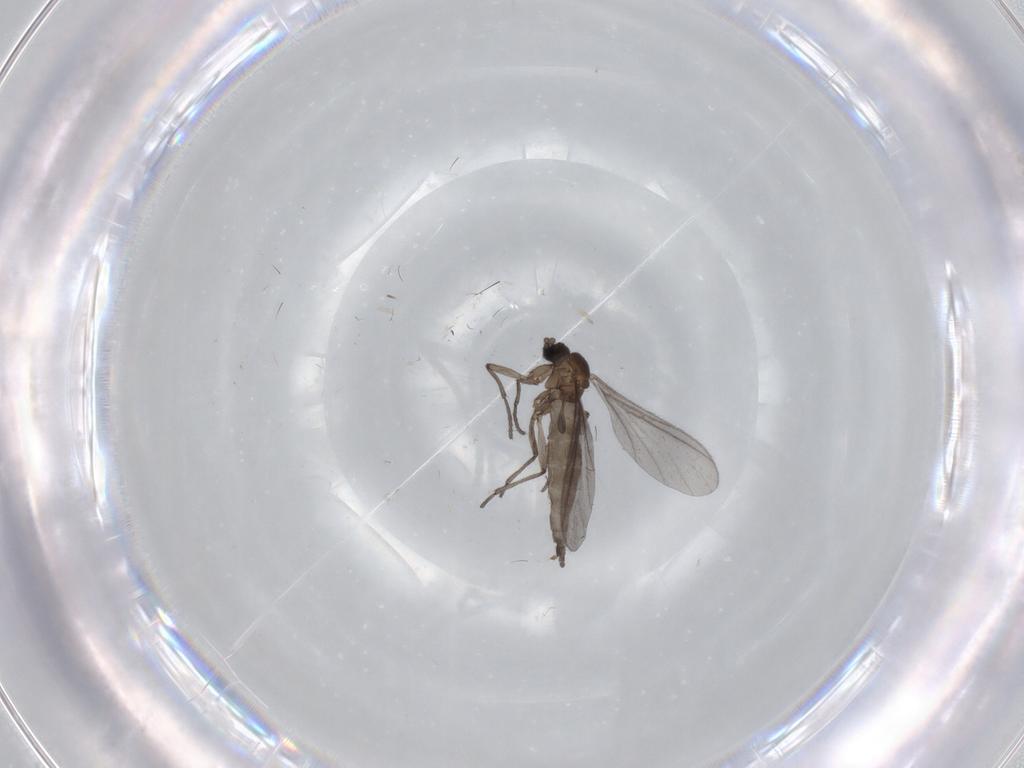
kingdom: Animalia
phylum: Arthropoda
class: Insecta
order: Diptera
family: Sciaridae
